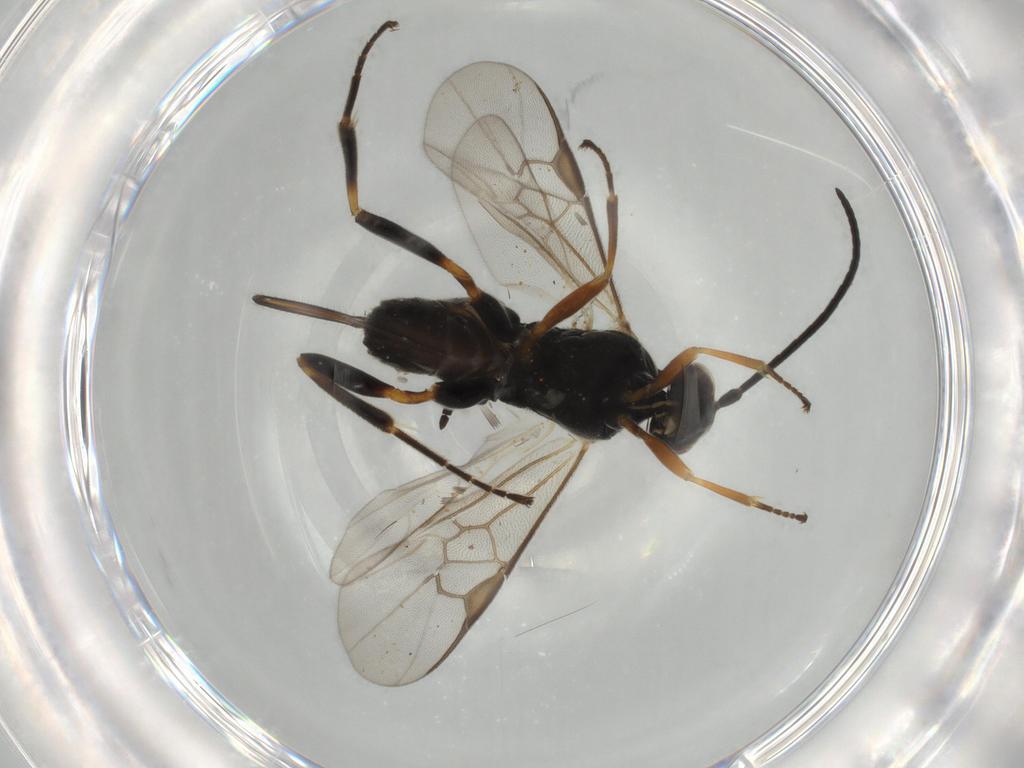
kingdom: Animalia
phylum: Arthropoda
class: Insecta
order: Hymenoptera
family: Braconidae
